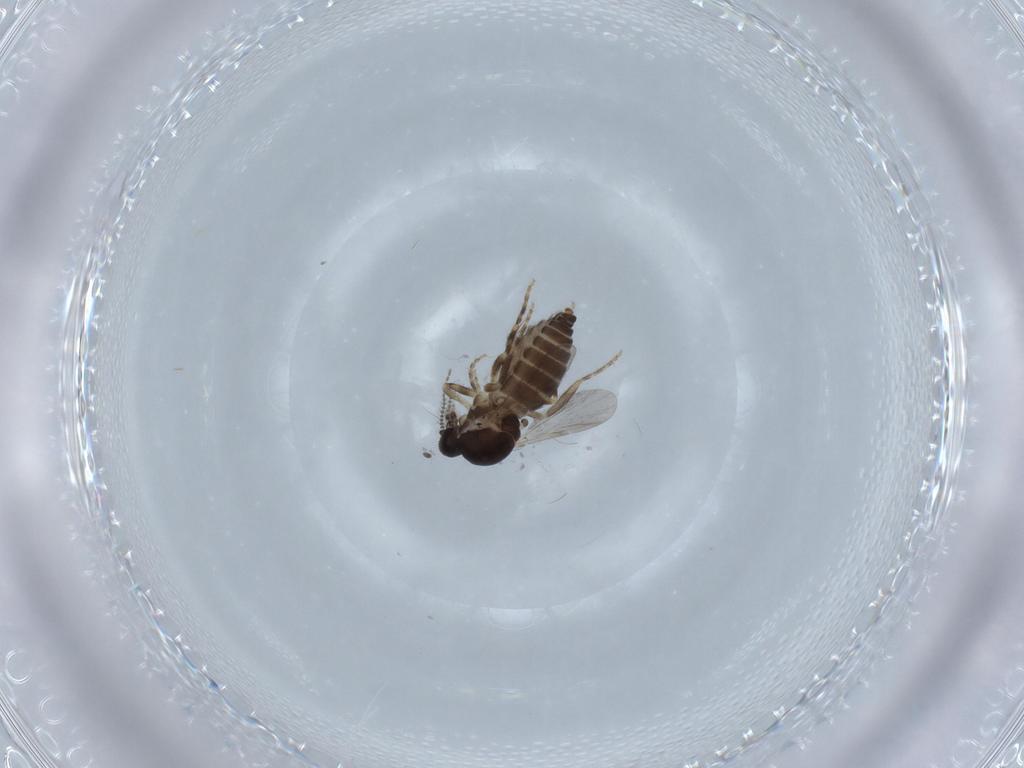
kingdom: Animalia
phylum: Arthropoda
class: Insecta
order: Diptera
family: Ceratopogonidae
